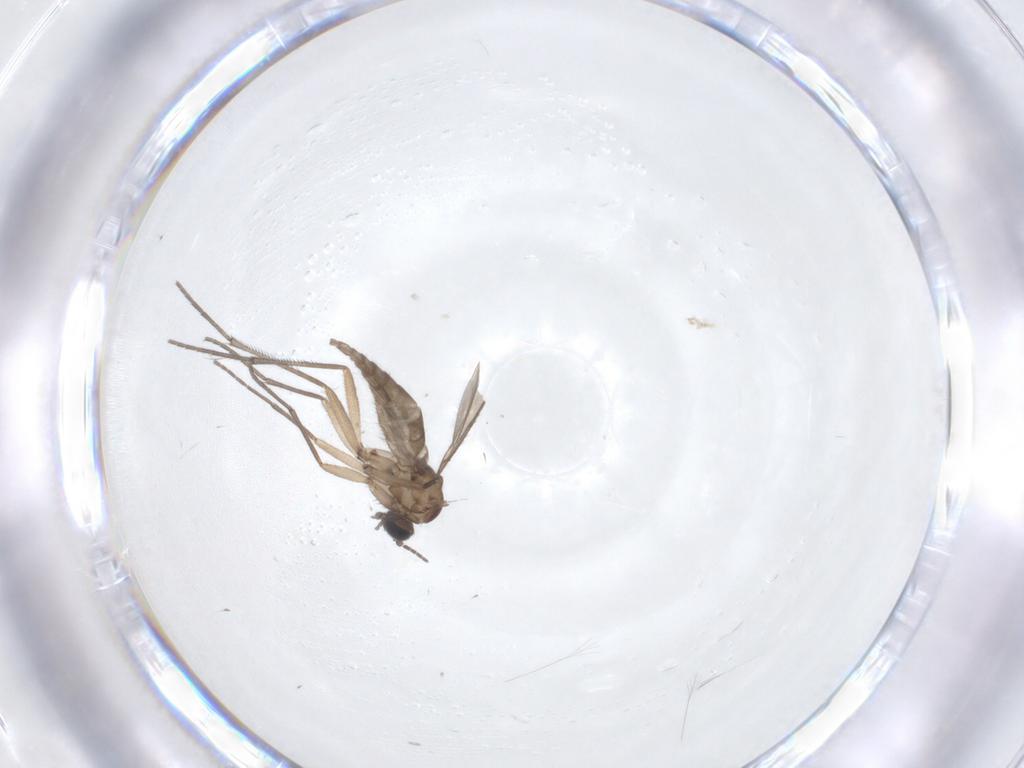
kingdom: Animalia
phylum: Arthropoda
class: Insecta
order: Diptera
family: Sciaridae
